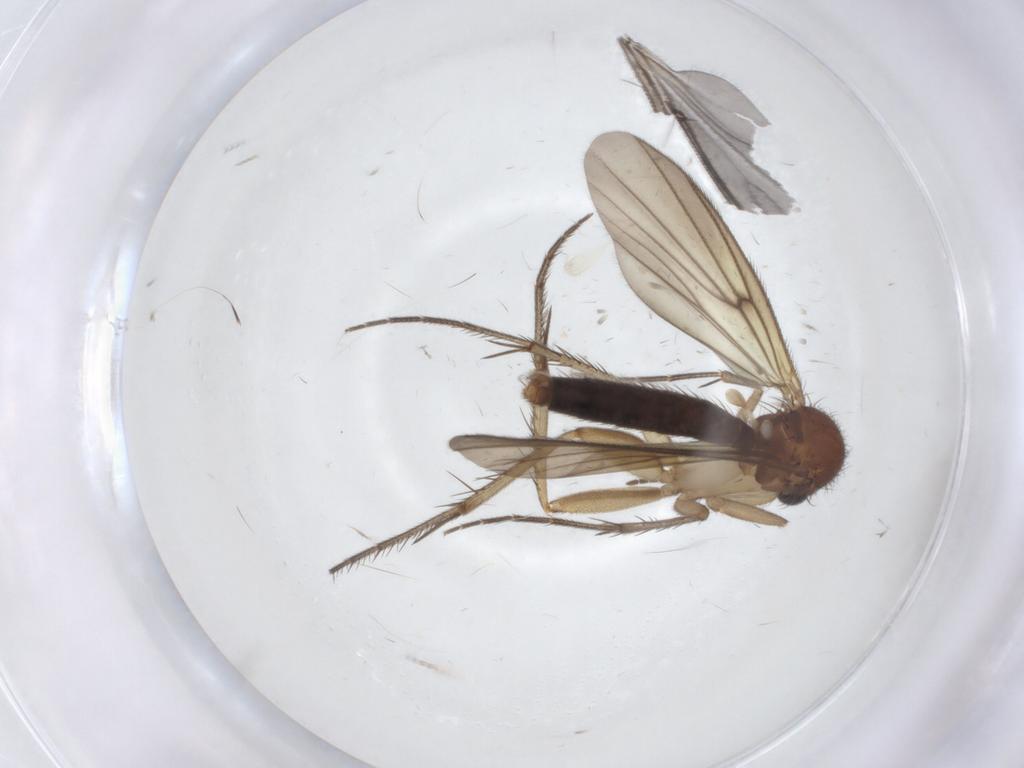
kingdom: Animalia
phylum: Arthropoda
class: Insecta
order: Diptera
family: Mycetophilidae
